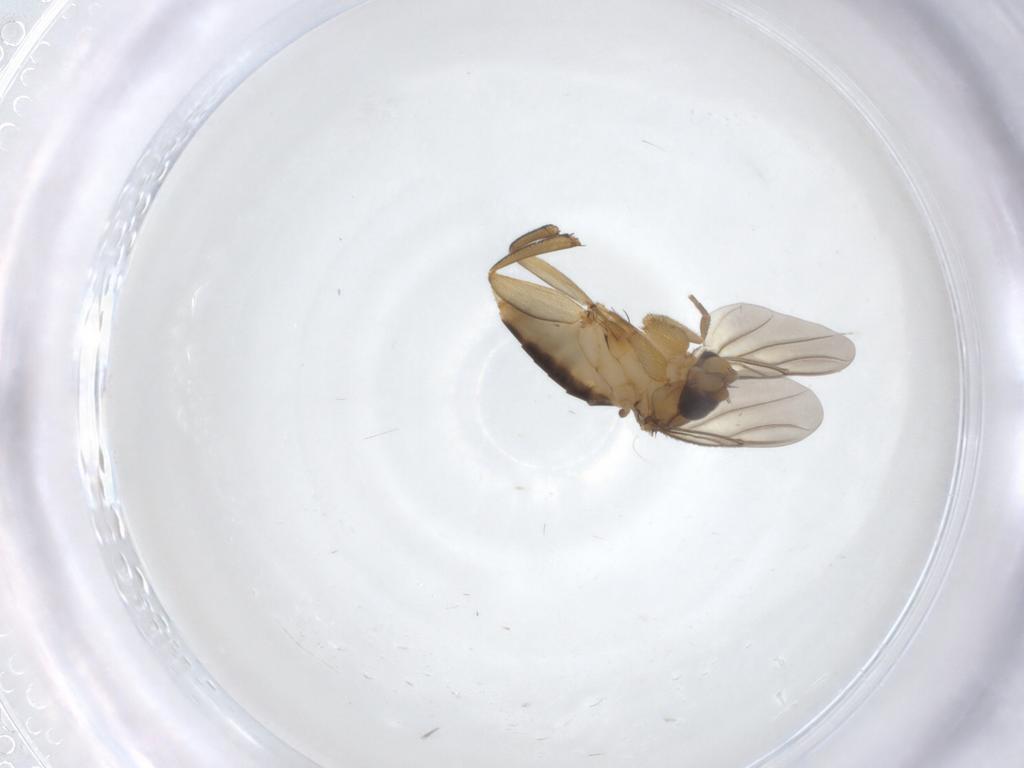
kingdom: Animalia
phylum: Arthropoda
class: Insecta
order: Diptera
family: Phoridae
